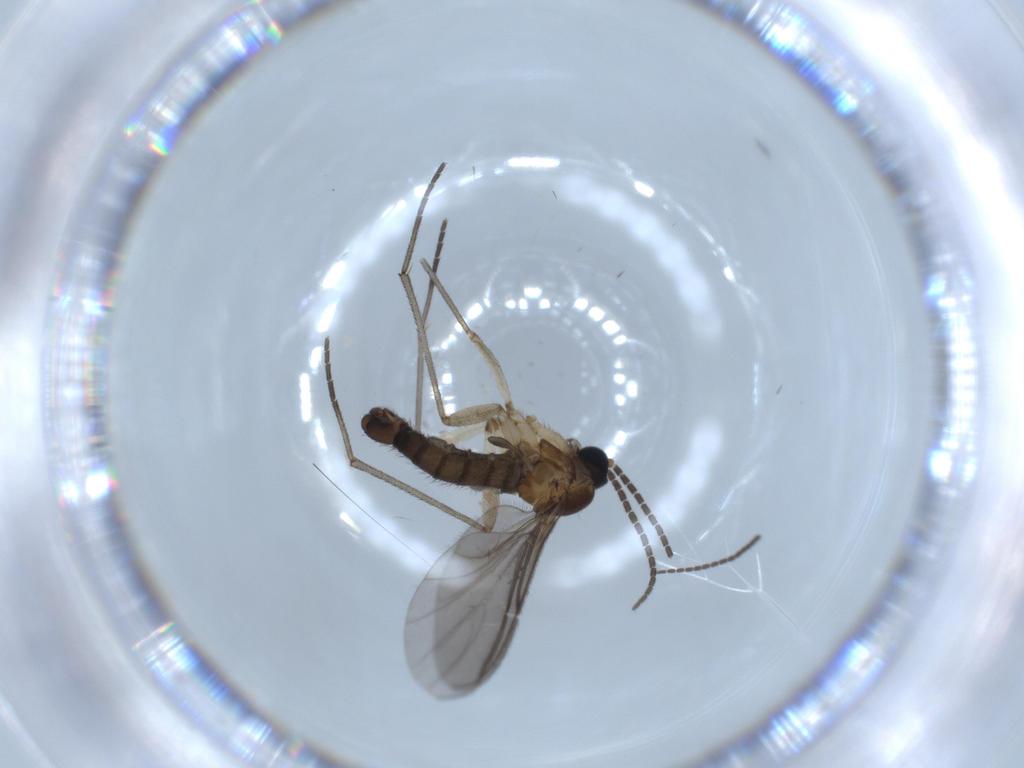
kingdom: Animalia
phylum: Arthropoda
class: Insecta
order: Diptera
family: Sciaridae
